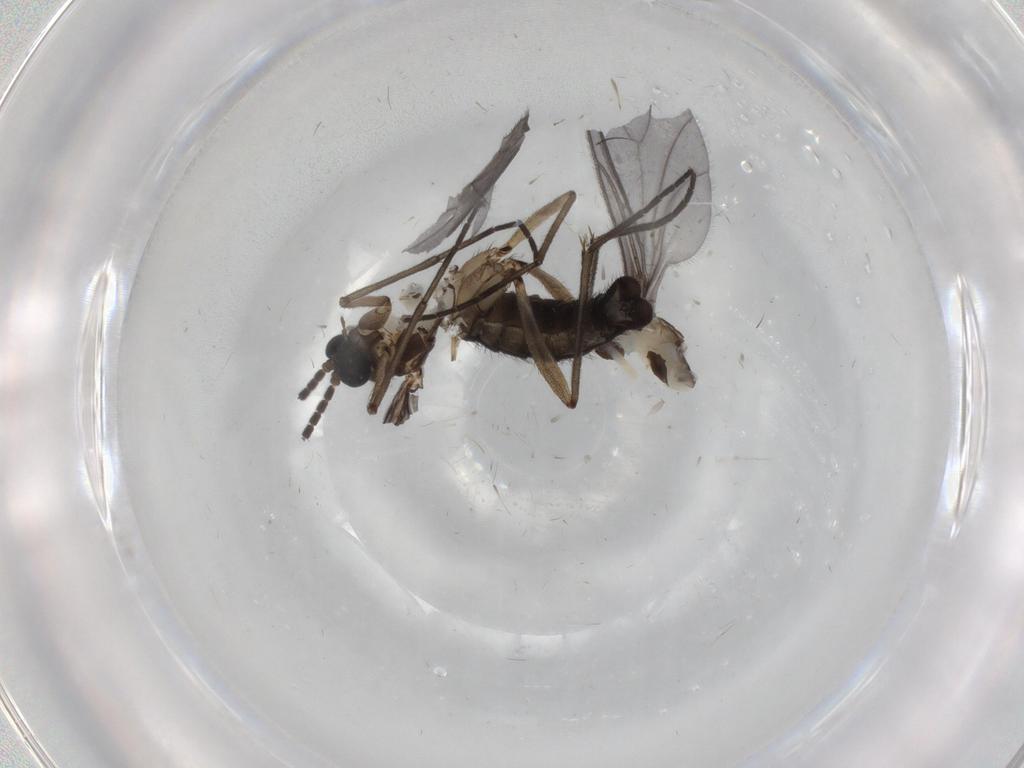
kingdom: Animalia
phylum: Arthropoda
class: Insecta
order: Diptera
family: Sciaridae
